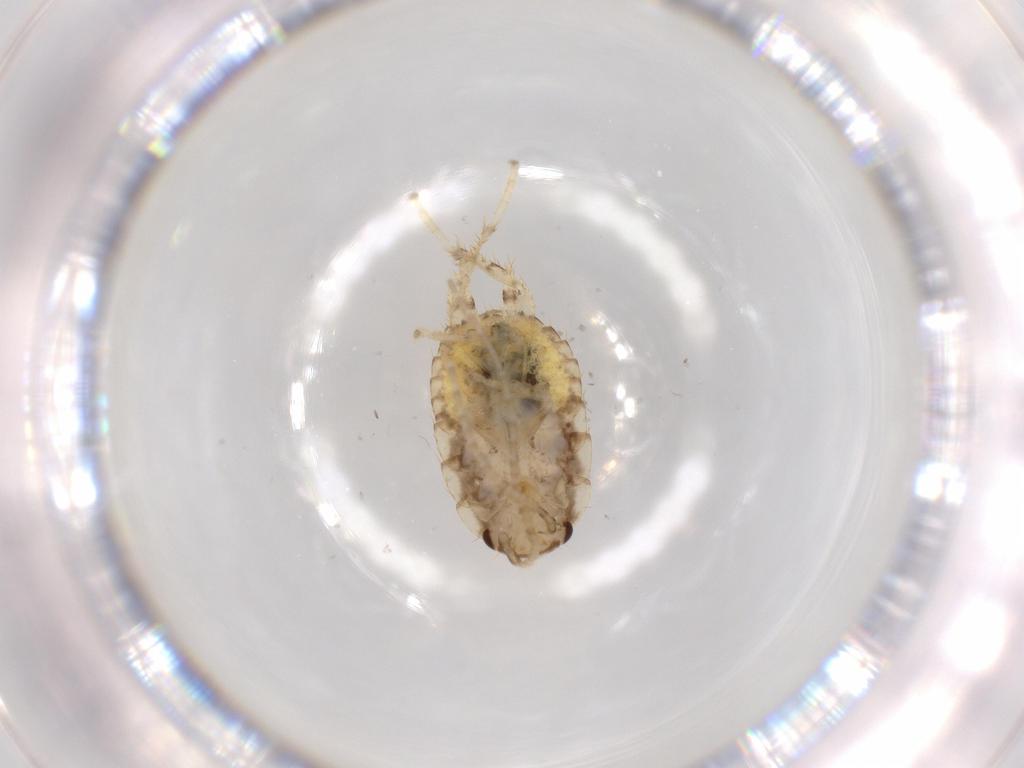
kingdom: Animalia
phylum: Arthropoda
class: Insecta
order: Blattodea
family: Ectobiidae
